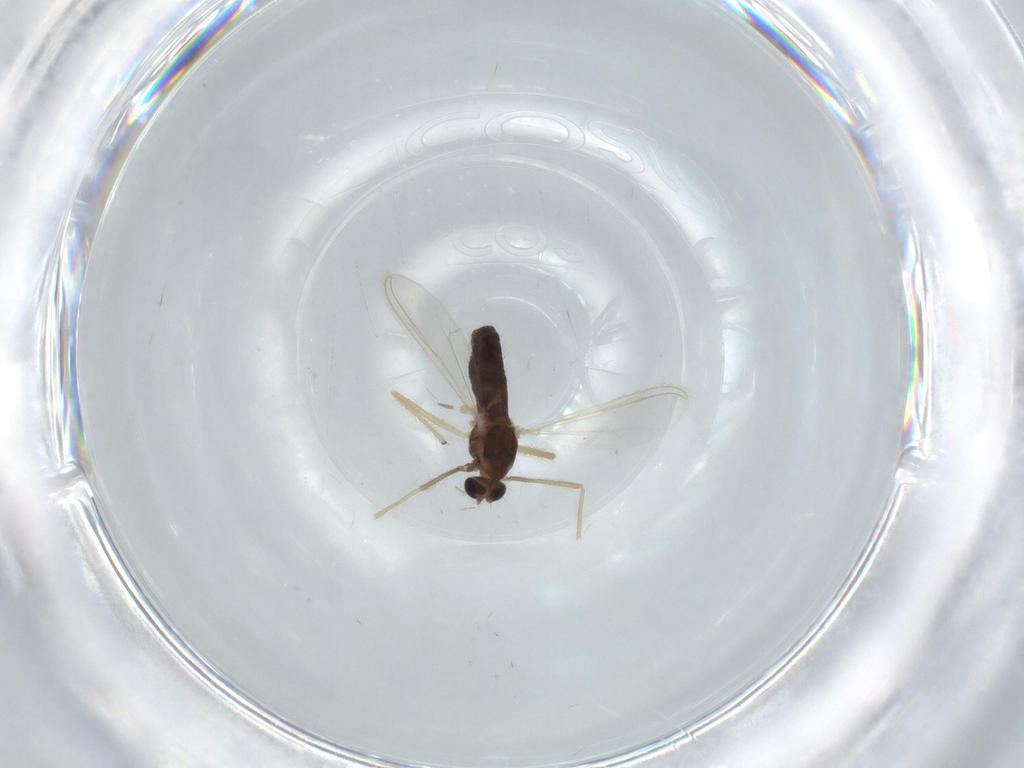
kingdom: Animalia
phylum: Arthropoda
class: Insecta
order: Diptera
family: Chironomidae
